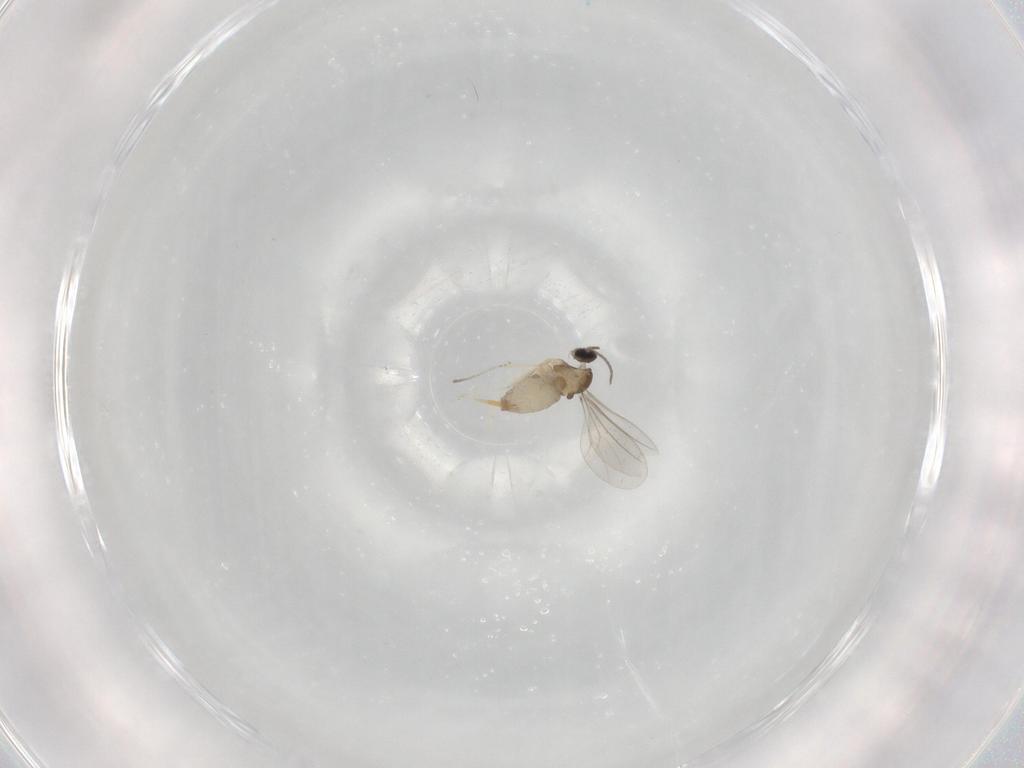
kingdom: Animalia
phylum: Arthropoda
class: Insecta
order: Diptera
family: Cecidomyiidae
